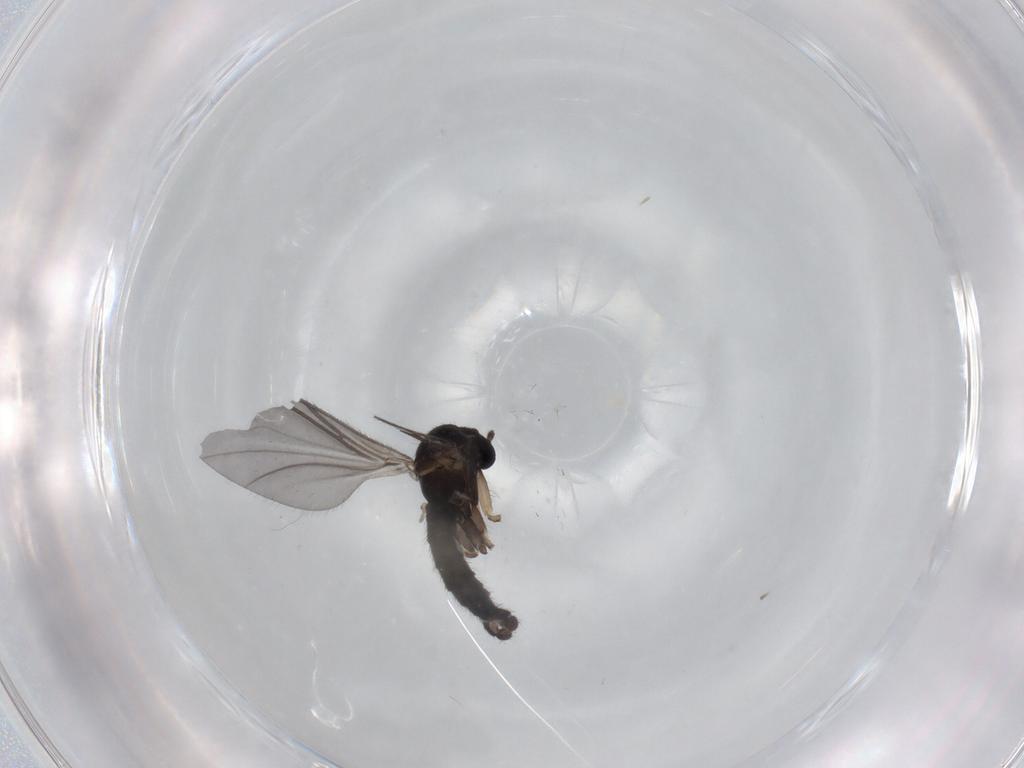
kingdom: Animalia
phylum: Arthropoda
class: Insecta
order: Diptera
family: Sciaridae
